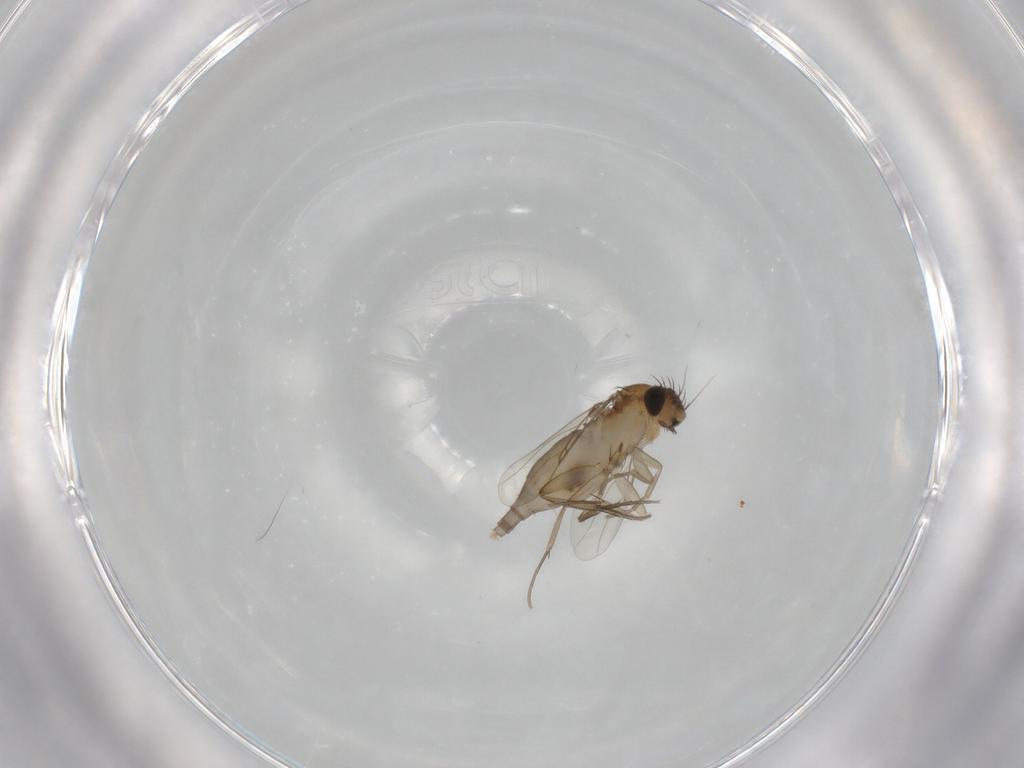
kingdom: Animalia
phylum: Arthropoda
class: Insecta
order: Diptera
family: Phoridae
